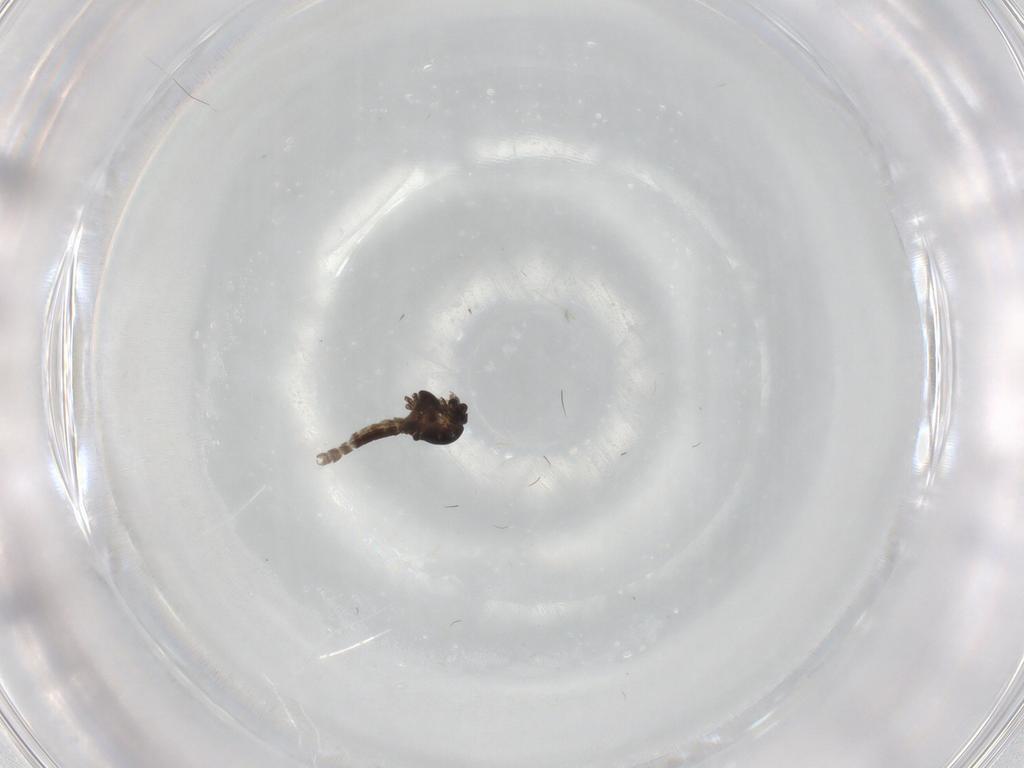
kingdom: Animalia
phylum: Arthropoda
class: Insecta
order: Diptera
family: Chironomidae
